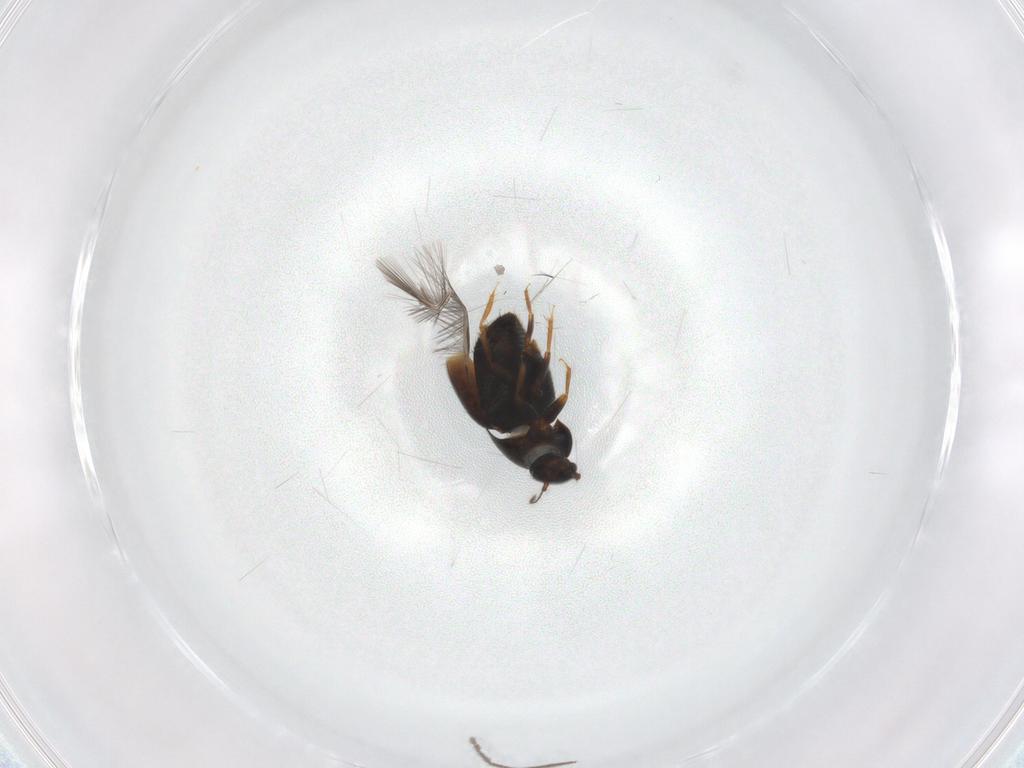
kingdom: Animalia
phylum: Arthropoda
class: Insecta
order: Coleoptera
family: Ptiliidae
